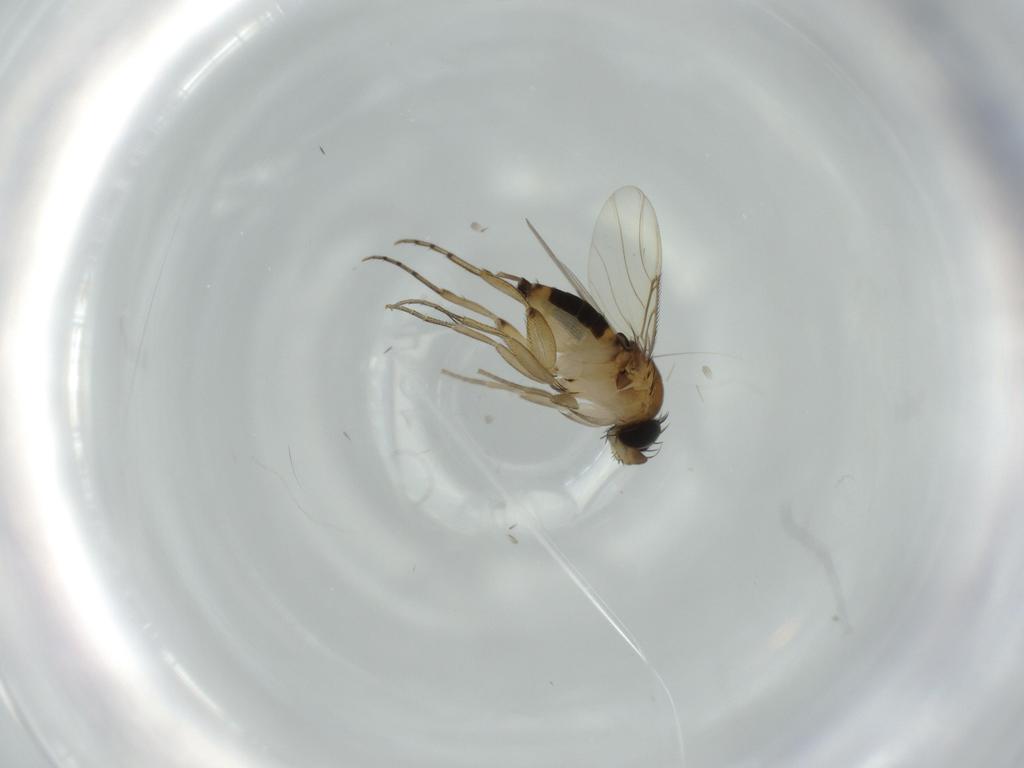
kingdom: Animalia
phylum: Arthropoda
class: Insecta
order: Diptera
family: Phoridae
